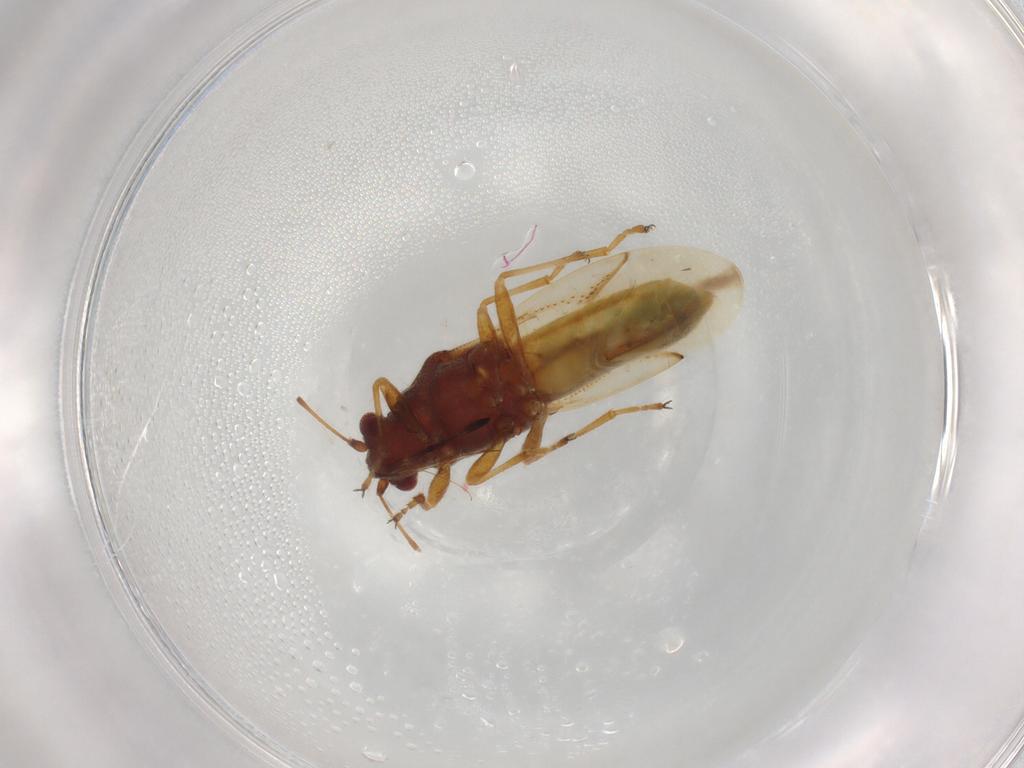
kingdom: Animalia
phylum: Arthropoda
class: Insecta
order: Hemiptera
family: Coreidae
